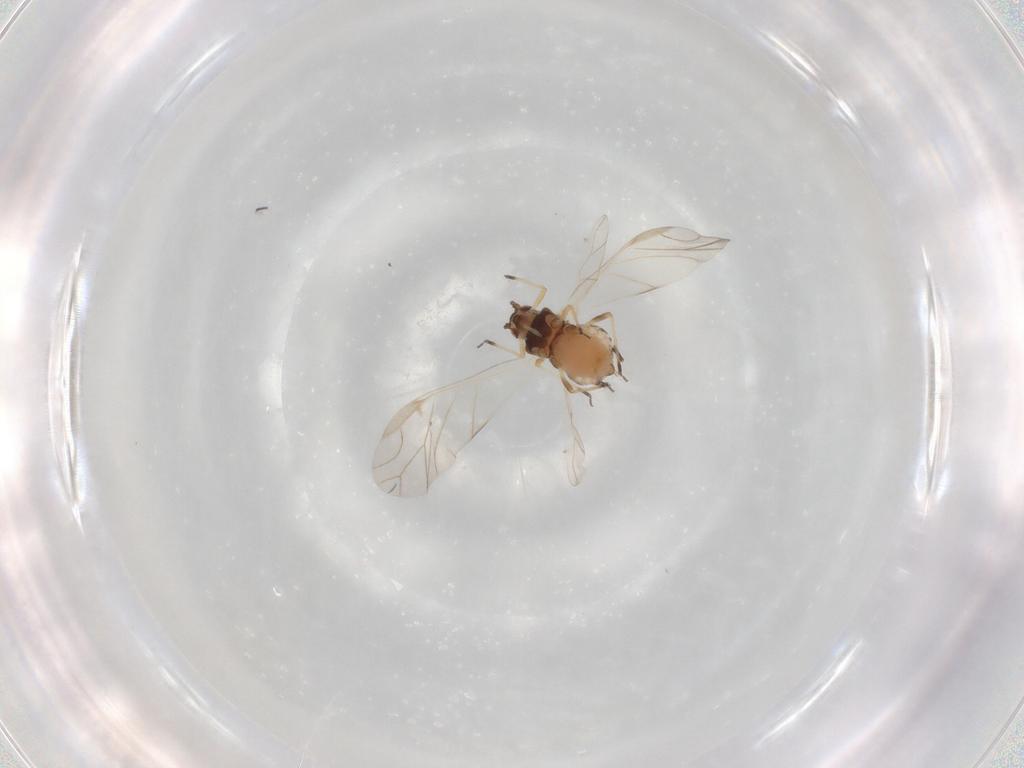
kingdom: Animalia
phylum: Arthropoda
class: Insecta
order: Hemiptera
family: Aphididae
